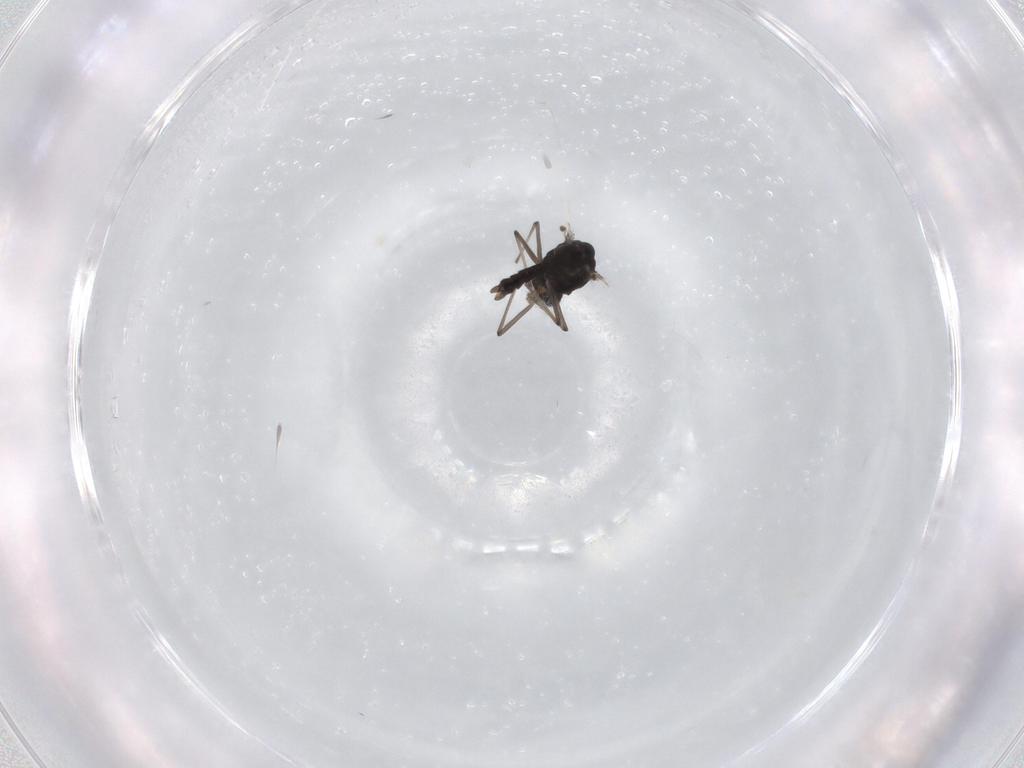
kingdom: Animalia
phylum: Arthropoda
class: Insecta
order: Diptera
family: Chironomidae
